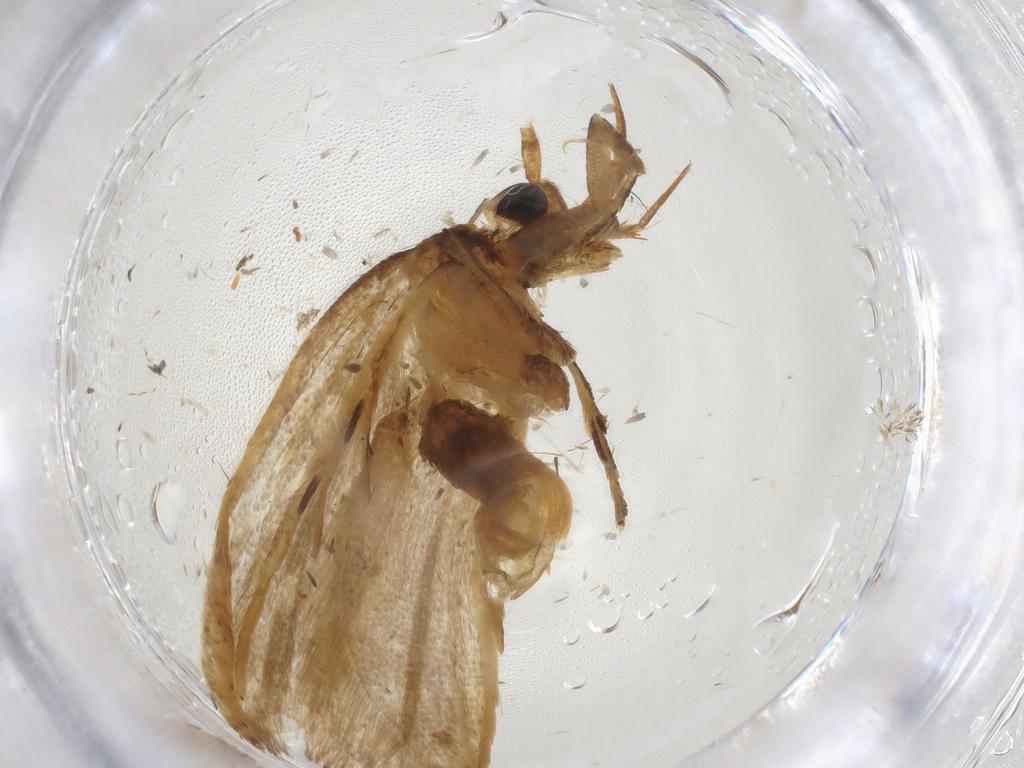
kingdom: Animalia
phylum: Arthropoda
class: Insecta
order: Lepidoptera
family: Lecithoceridae
